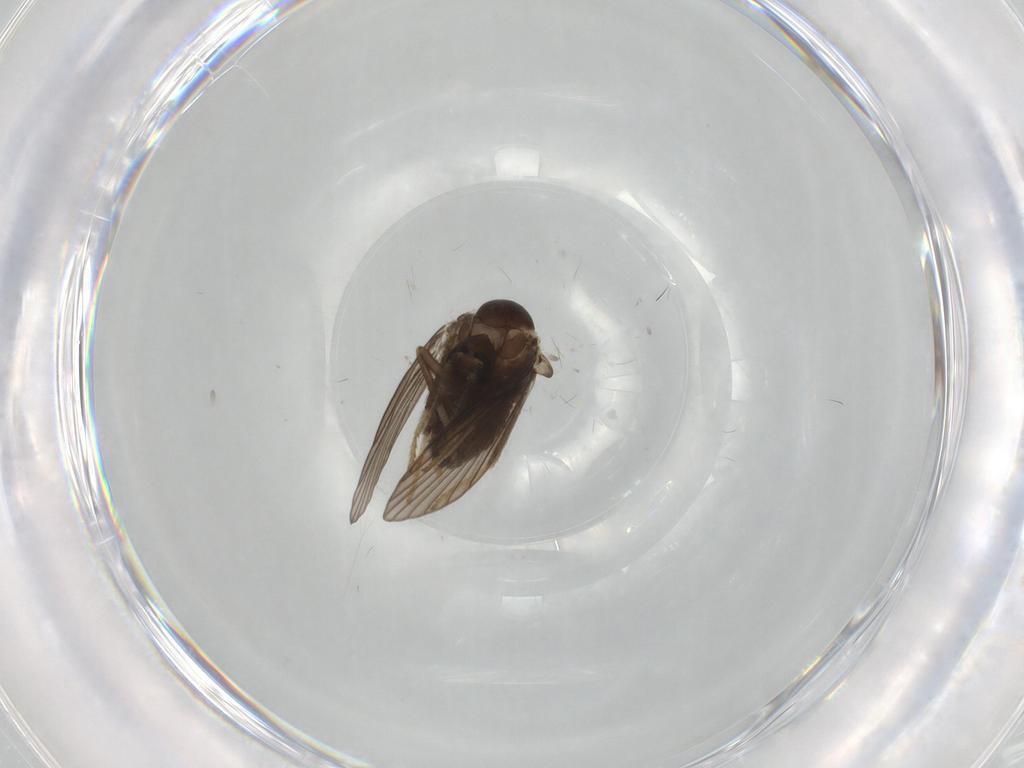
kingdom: Animalia
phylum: Arthropoda
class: Insecta
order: Diptera
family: Psychodidae
